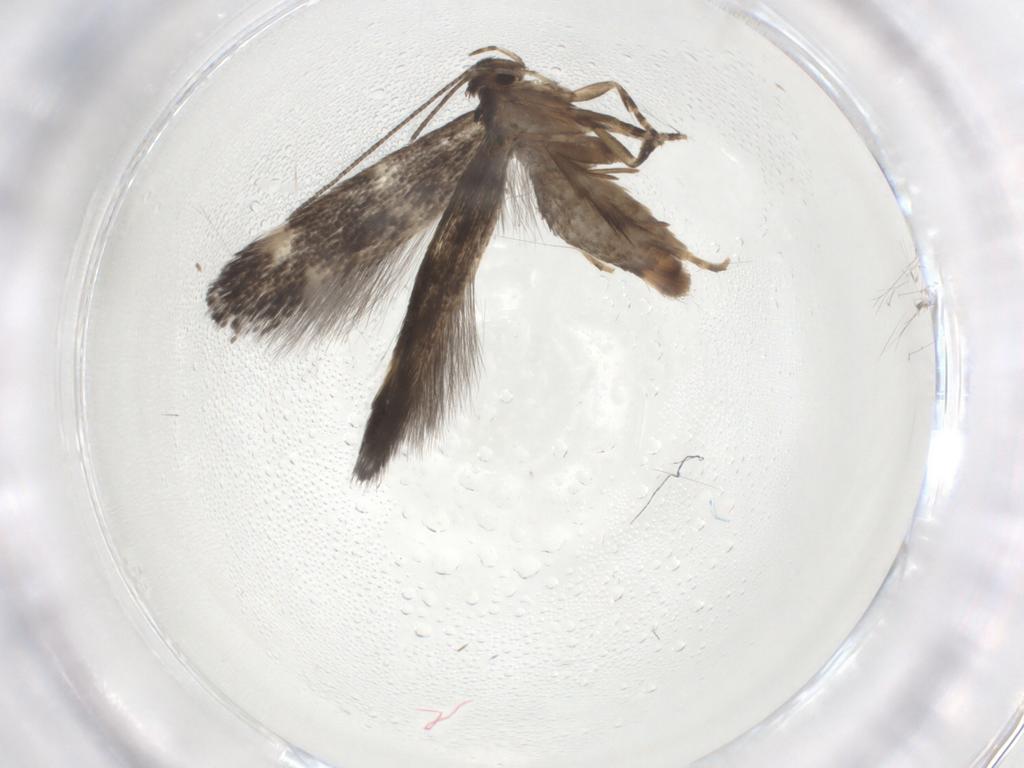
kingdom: Animalia
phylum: Arthropoda
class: Insecta
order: Lepidoptera
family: Elachistidae
